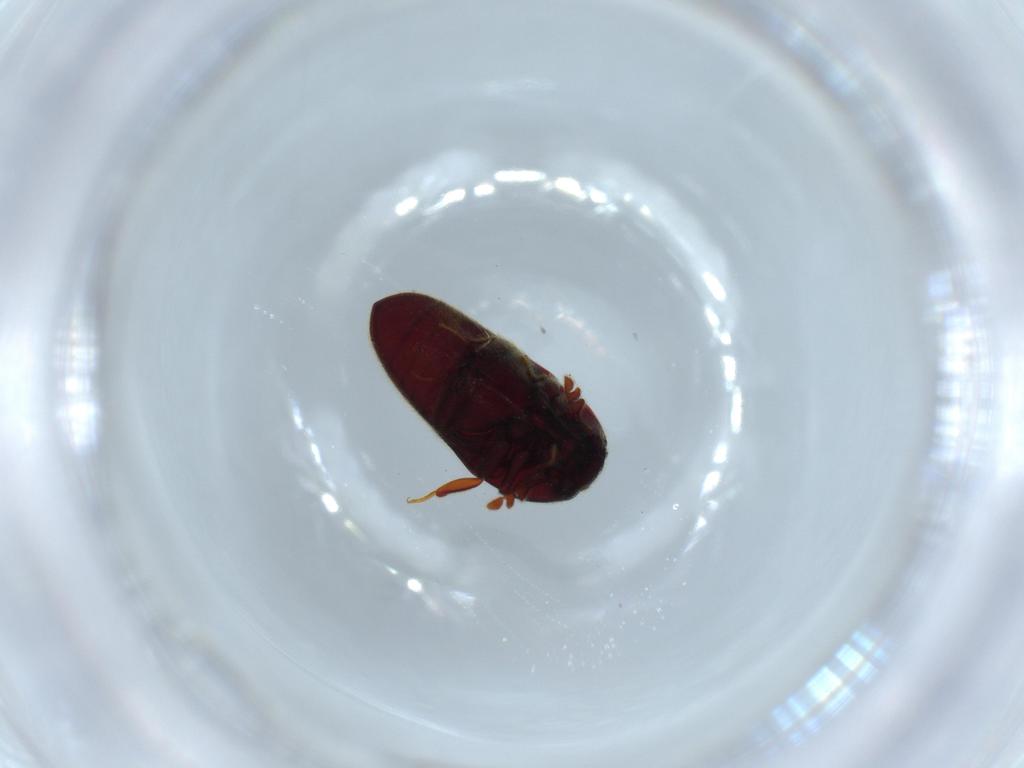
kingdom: Animalia
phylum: Arthropoda
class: Insecta
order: Coleoptera
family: Throscidae
